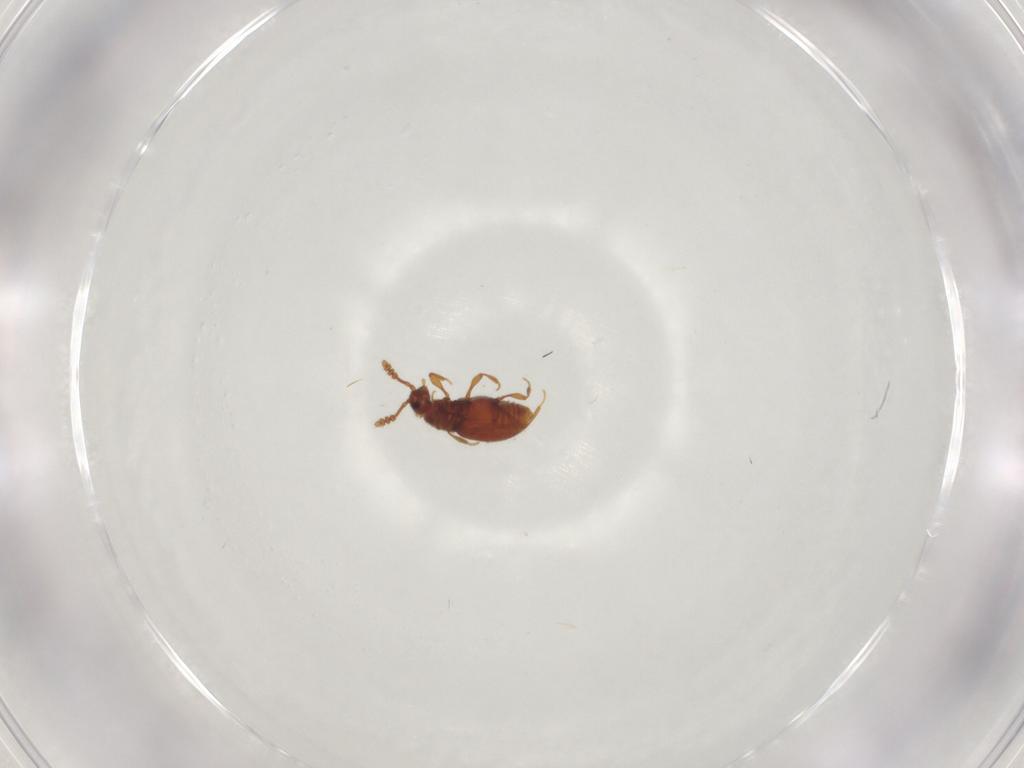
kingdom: Animalia
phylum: Arthropoda
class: Insecta
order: Coleoptera
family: Staphylinidae
